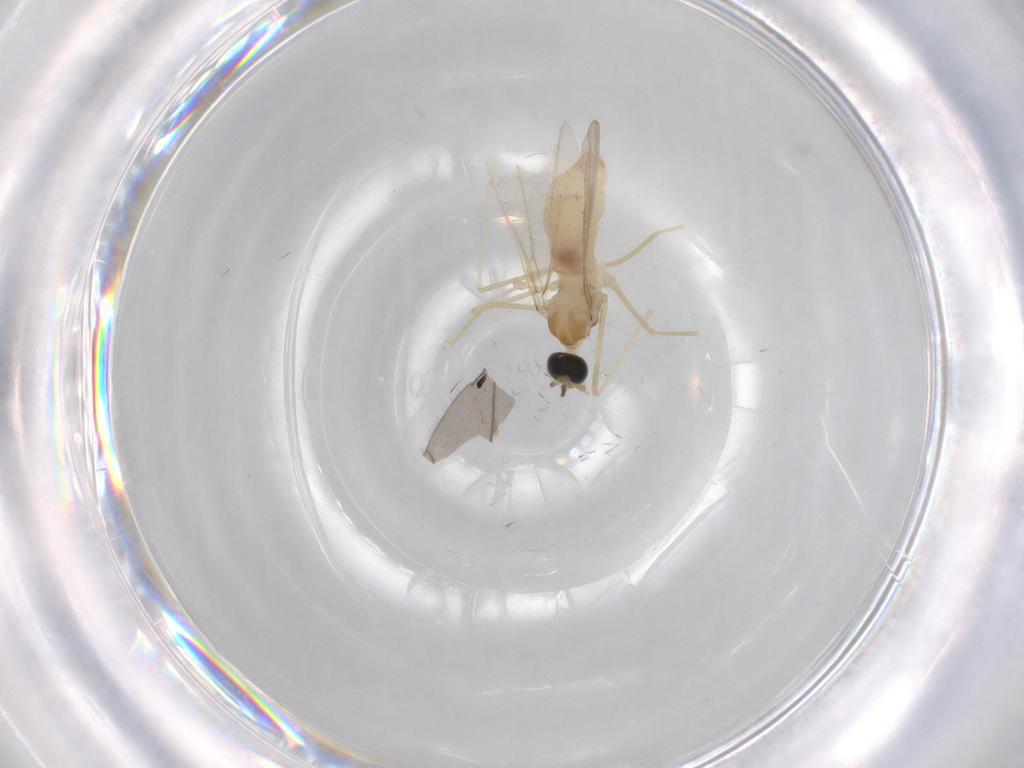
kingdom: Animalia
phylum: Arthropoda
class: Insecta
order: Diptera
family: Cecidomyiidae
